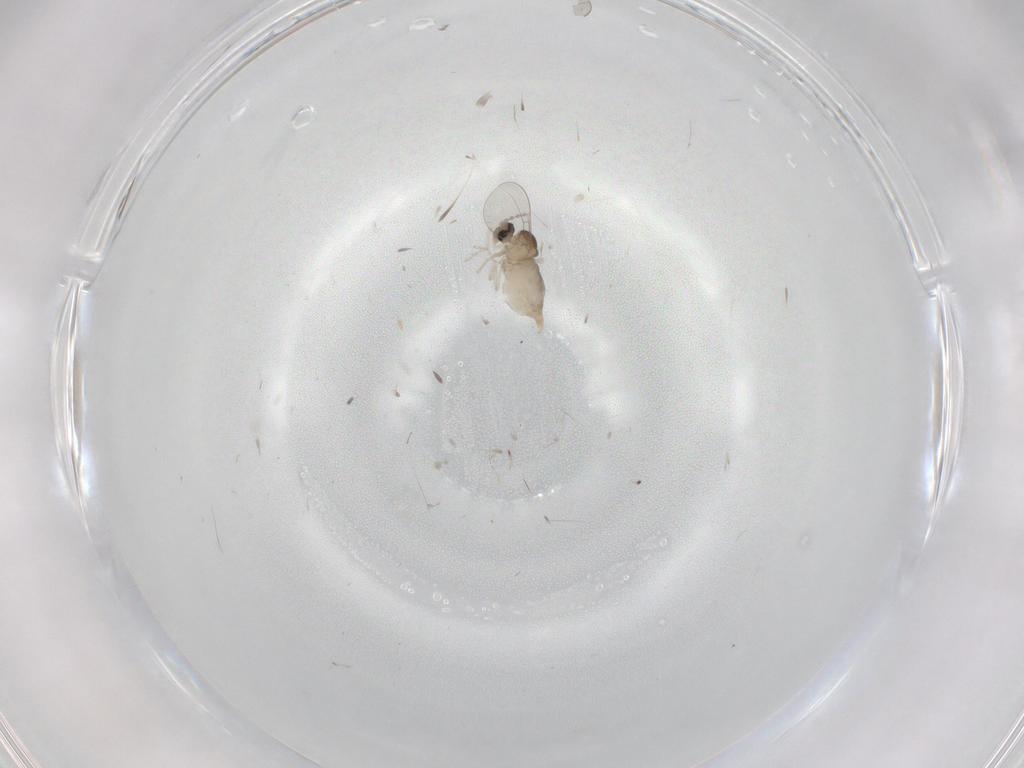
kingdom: Animalia
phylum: Arthropoda
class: Insecta
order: Diptera
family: Cecidomyiidae
